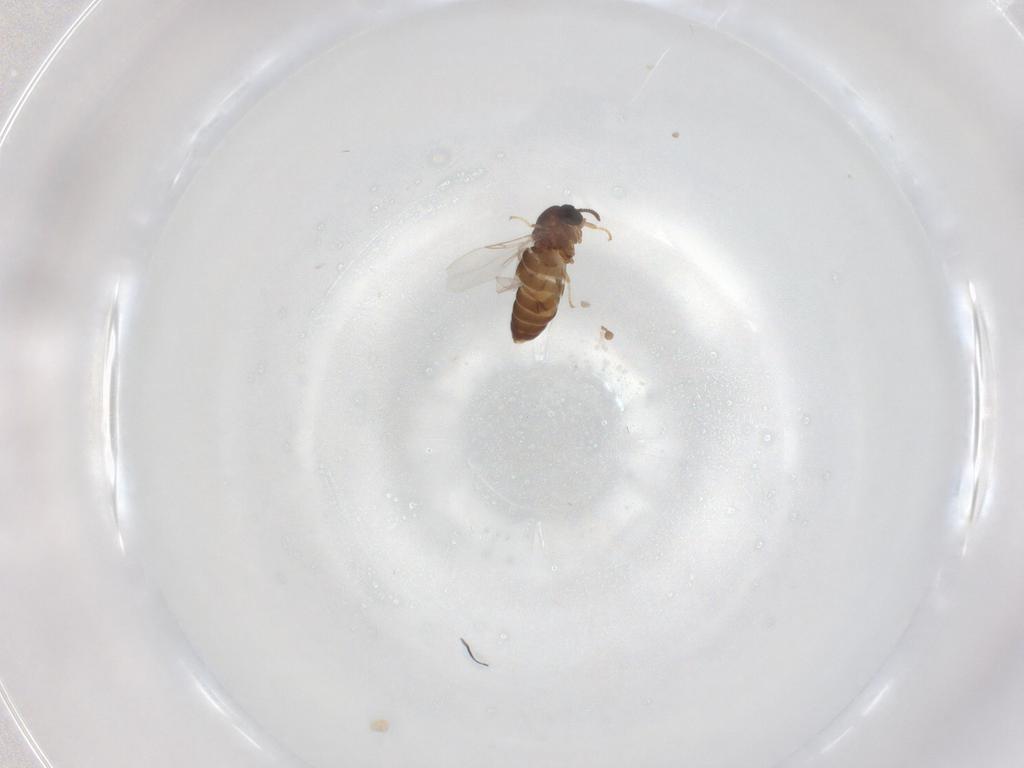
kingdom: Animalia
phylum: Arthropoda
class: Insecta
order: Diptera
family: Scatopsidae
